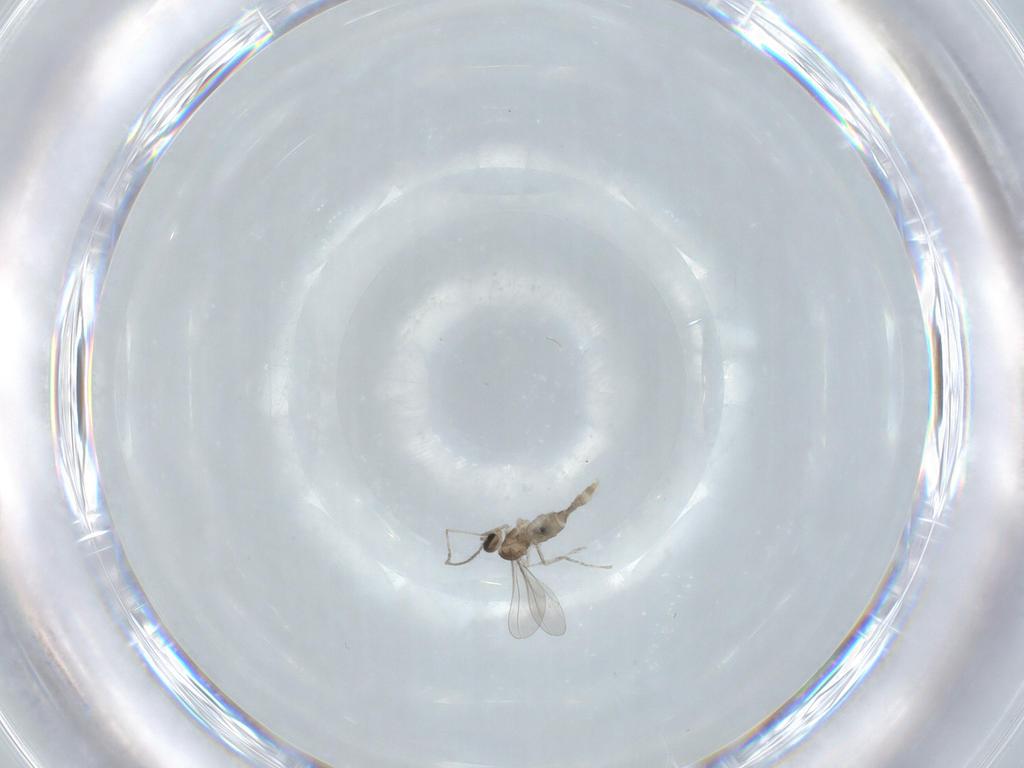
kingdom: Animalia
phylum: Arthropoda
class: Insecta
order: Diptera
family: Sciaridae
